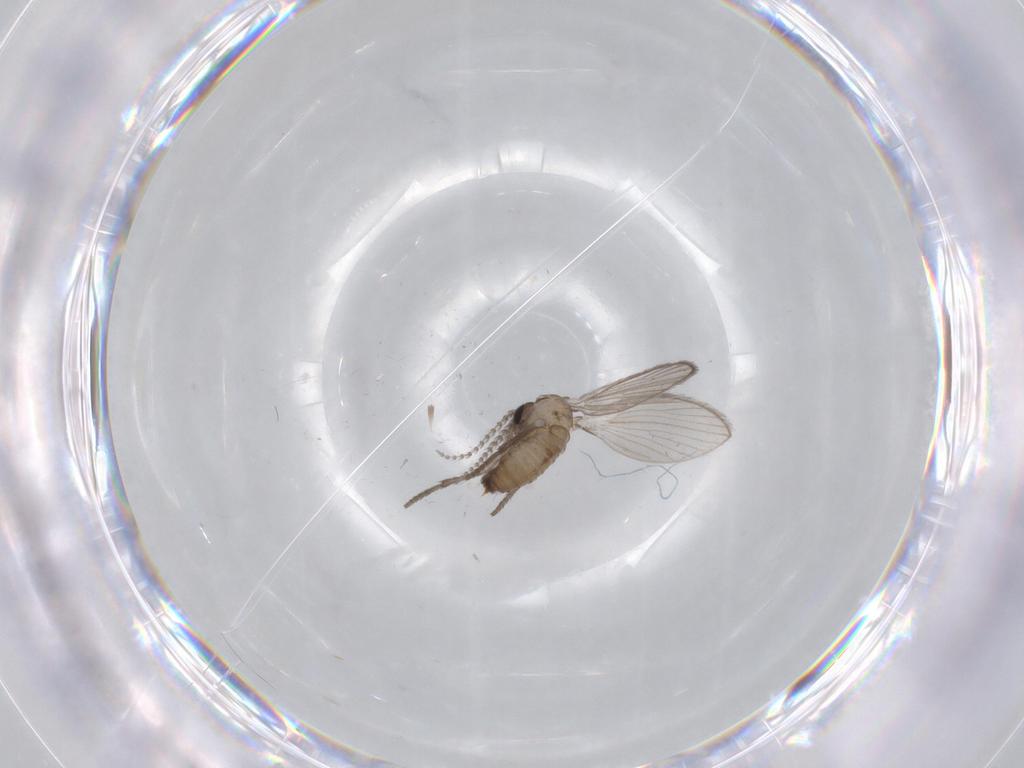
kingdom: Animalia
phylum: Arthropoda
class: Insecta
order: Diptera
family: Psychodidae
